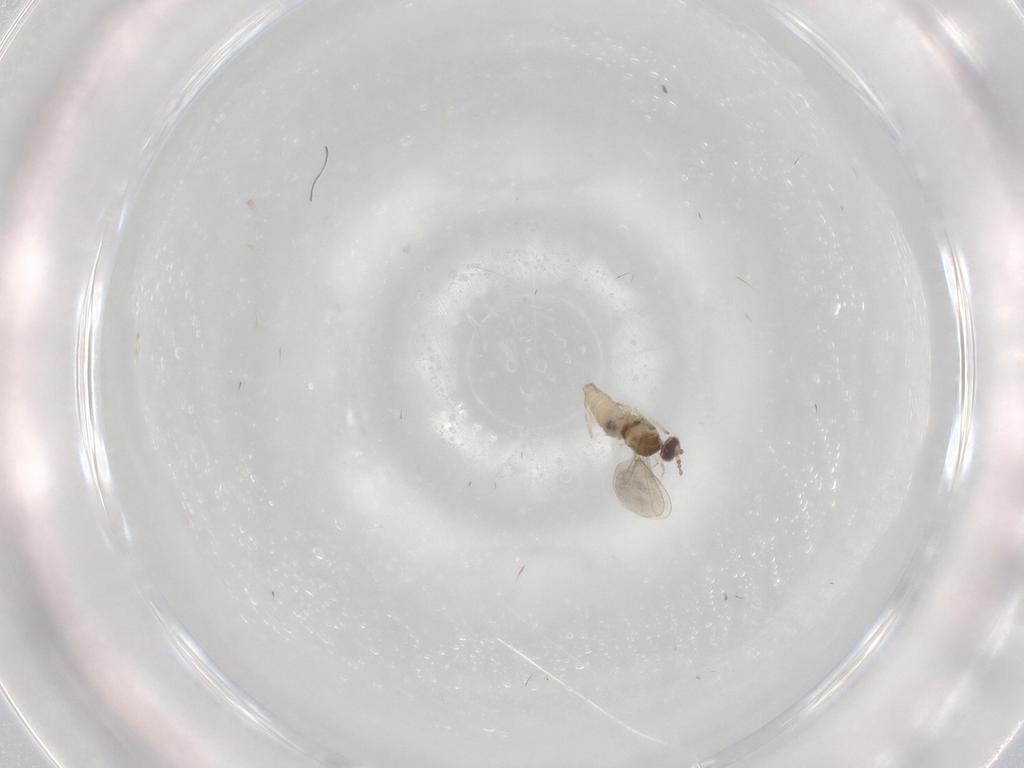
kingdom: Animalia
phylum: Arthropoda
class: Insecta
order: Diptera
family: Cecidomyiidae
